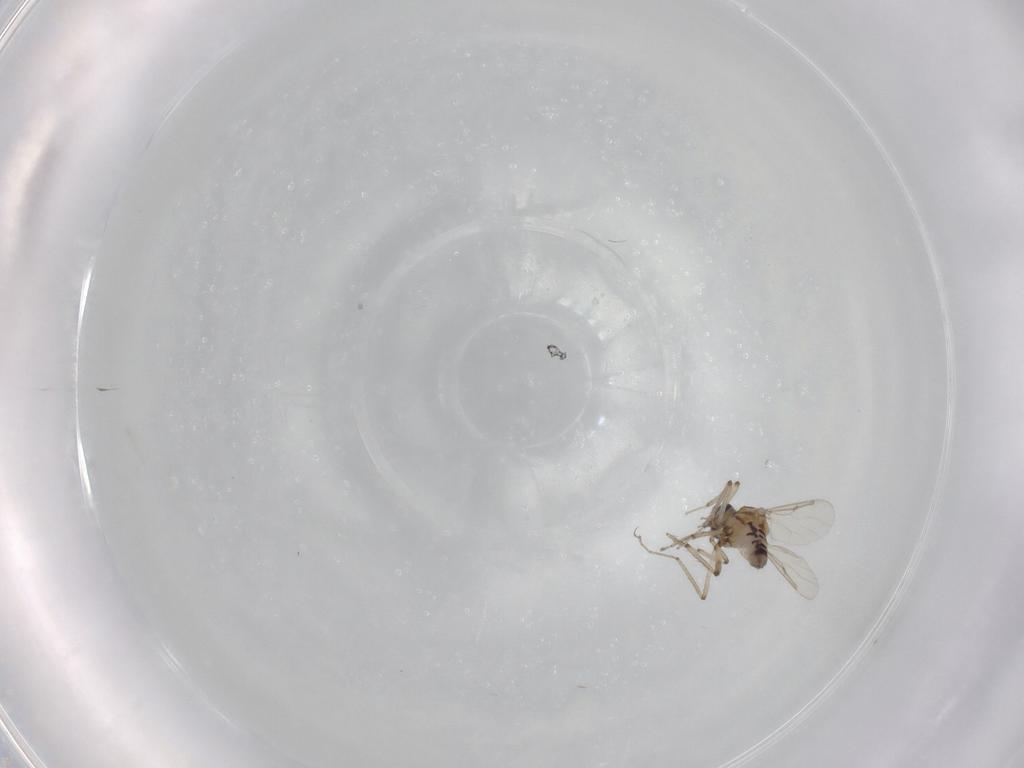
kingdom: Animalia
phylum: Arthropoda
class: Insecta
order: Diptera
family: Ceratopogonidae
